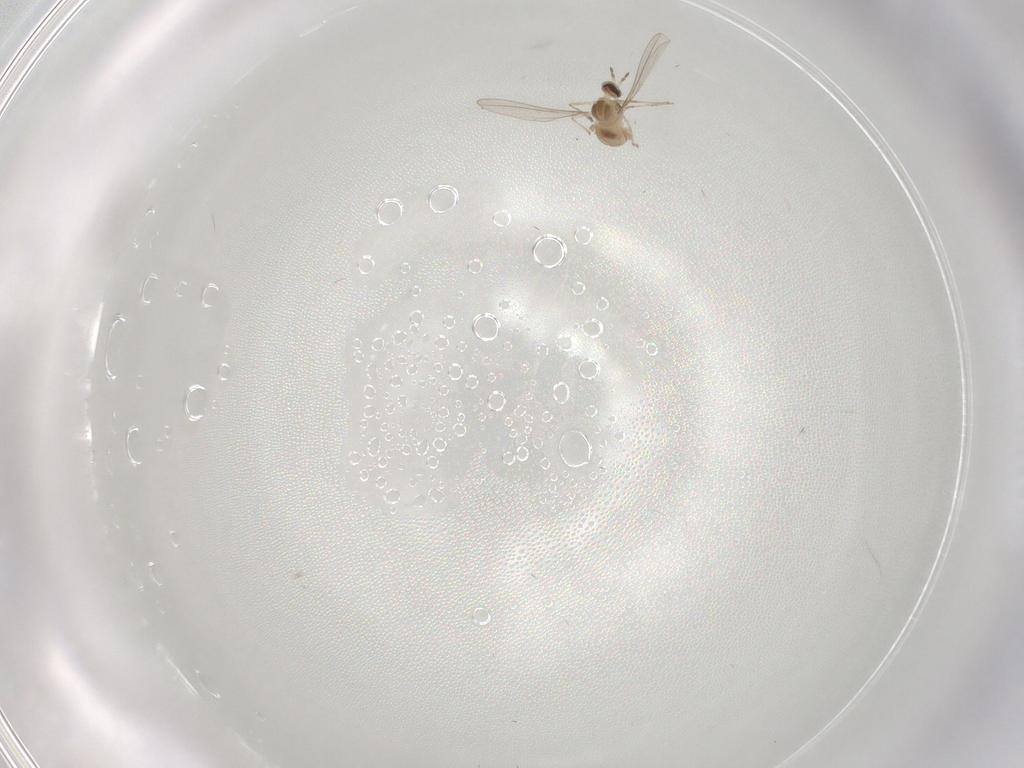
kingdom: Animalia
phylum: Arthropoda
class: Insecta
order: Diptera
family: Cecidomyiidae
